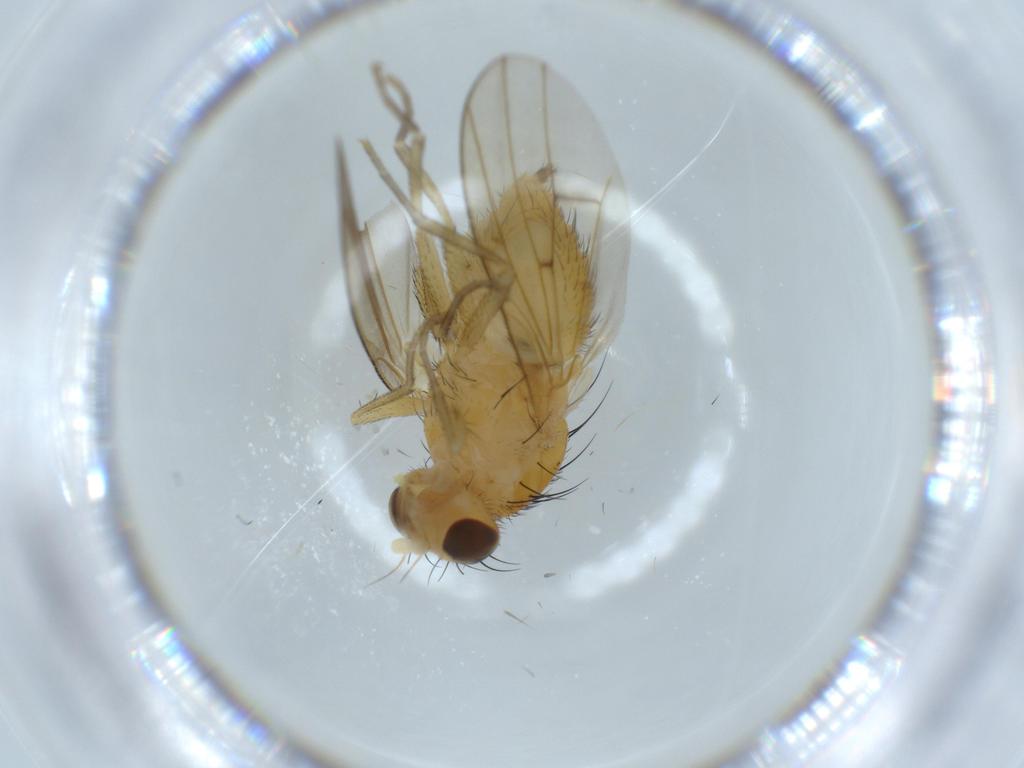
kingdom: Animalia
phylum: Arthropoda
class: Insecta
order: Diptera
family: Lauxaniidae
